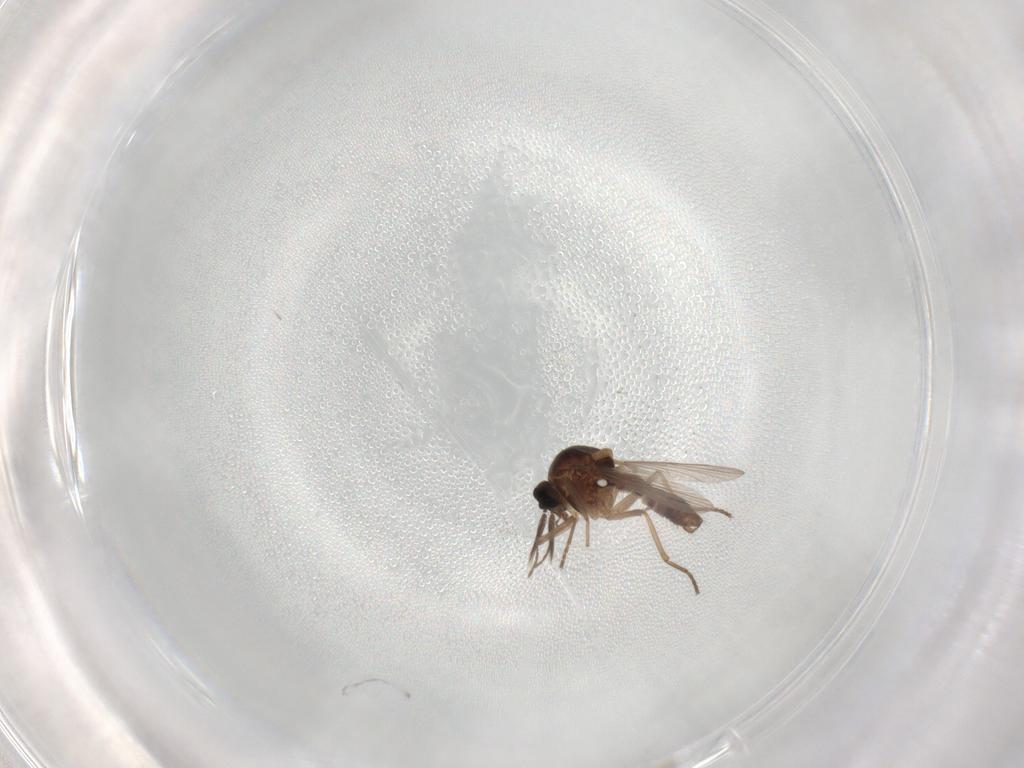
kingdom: Animalia
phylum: Arthropoda
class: Insecta
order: Diptera
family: Ceratopogonidae
